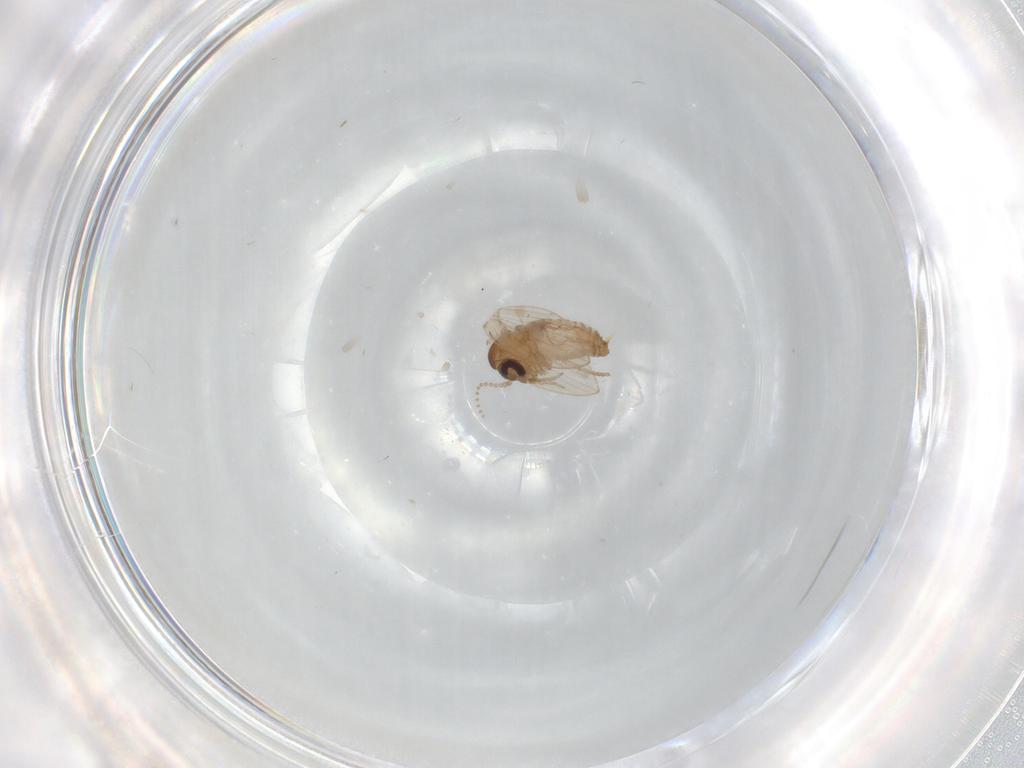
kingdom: Animalia
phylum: Arthropoda
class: Insecta
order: Diptera
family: Psychodidae
